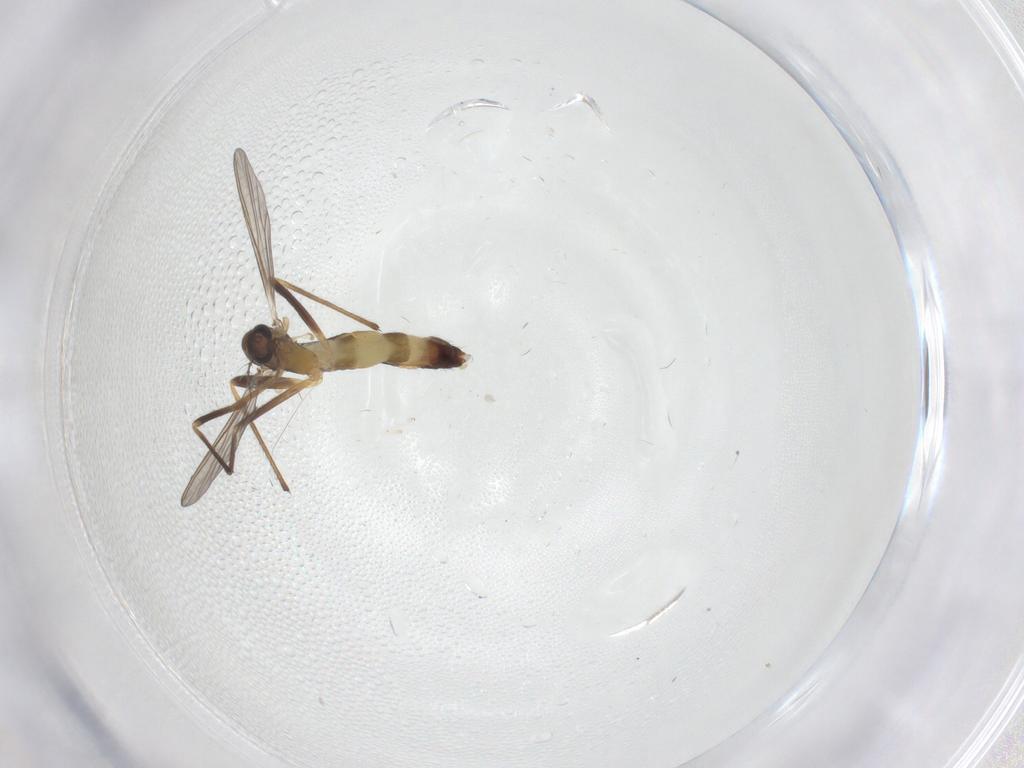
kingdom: Animalia
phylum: Arthropoda
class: Insecta
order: Diptera
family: Chironomidae
